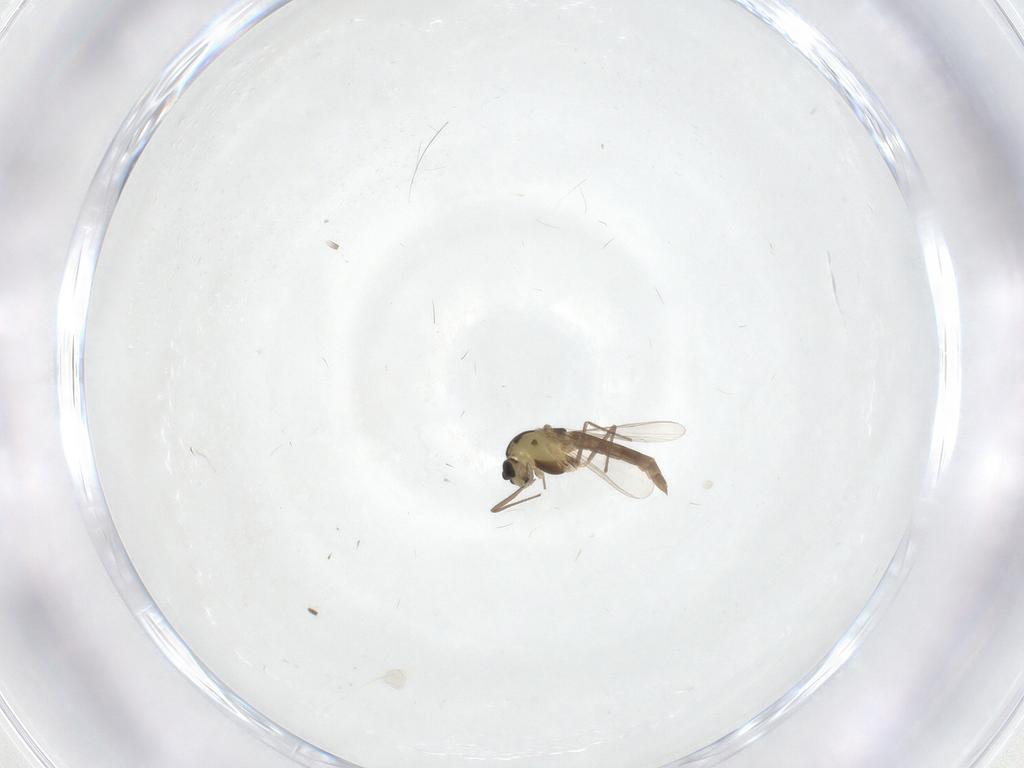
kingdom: Animalia
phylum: Arthropoda
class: Insecta
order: Diptera
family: Chironomidae
